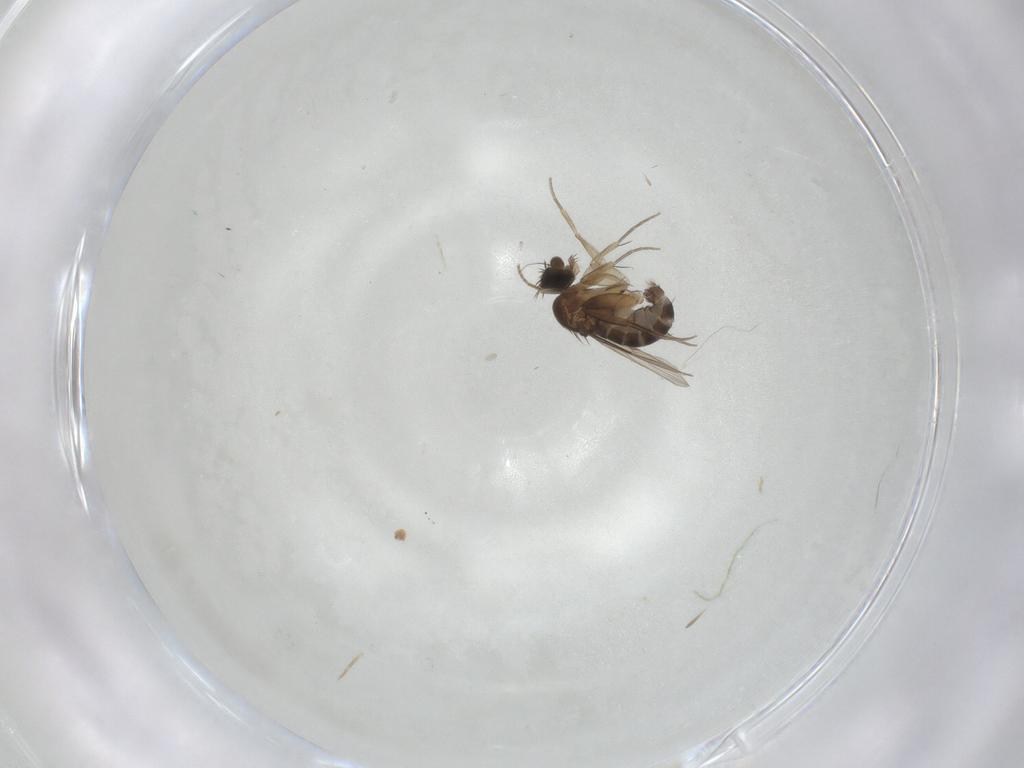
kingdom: Animalia
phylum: Arthropoda
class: Insecta
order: Diptera
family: Phoridae
